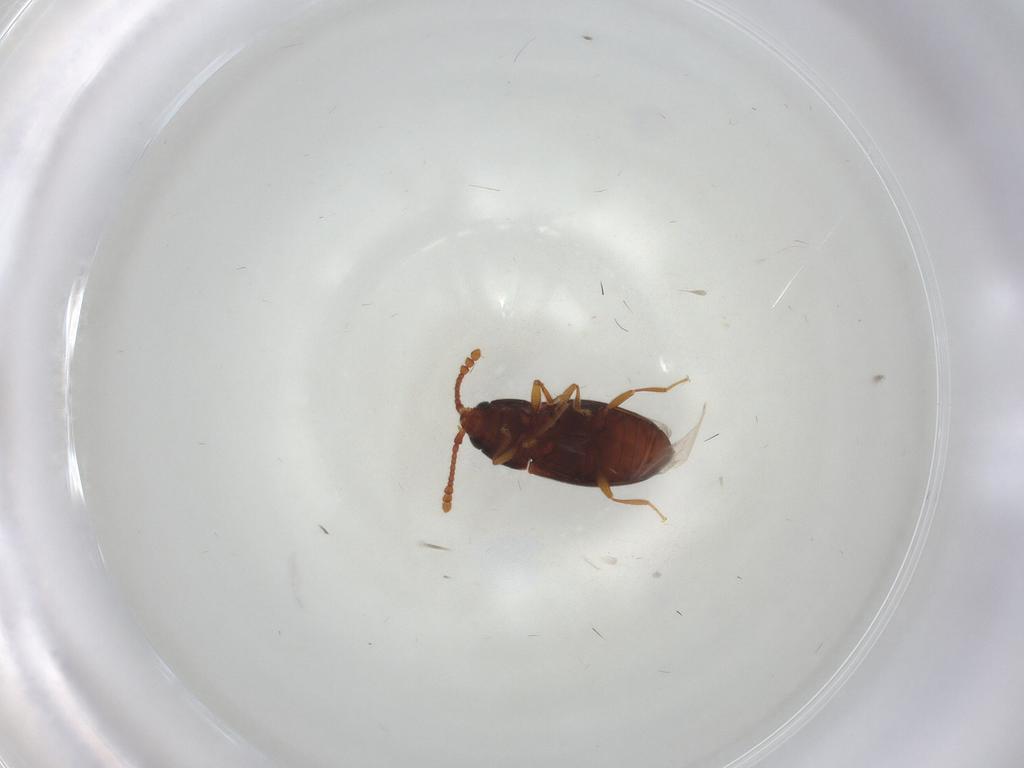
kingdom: Animalia
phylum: Arthropoda
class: Insecta
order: Coleoptera
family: Cryptophagidae
